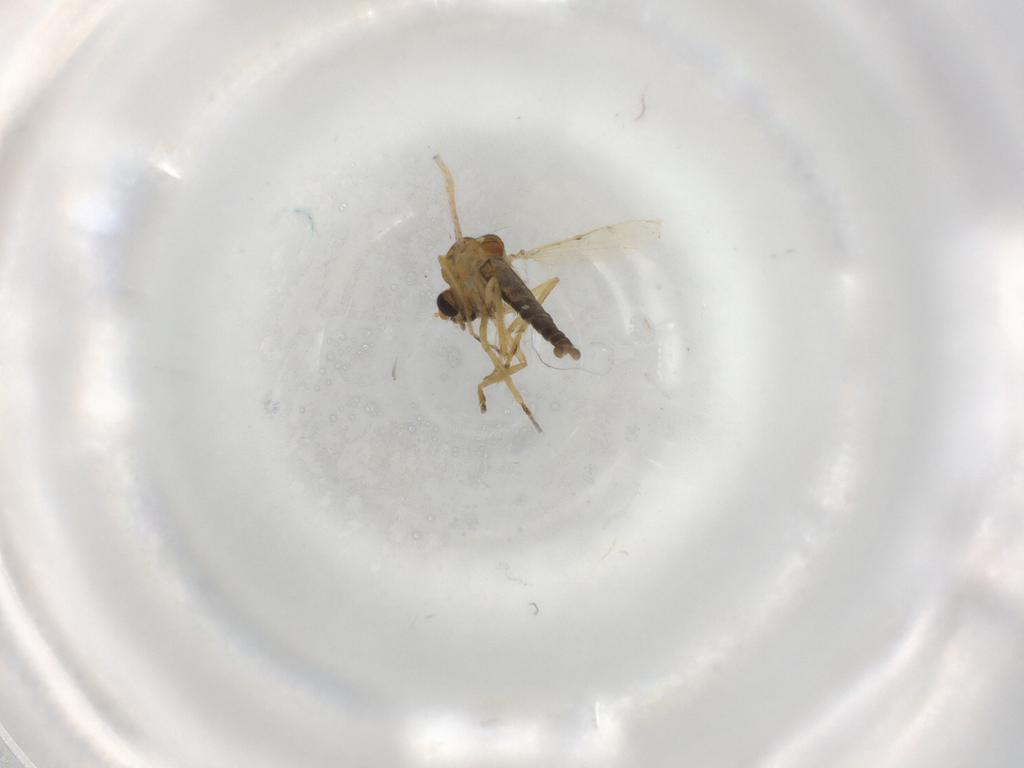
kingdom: Animalia
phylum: Arthropoda
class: Insecta
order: Diptera
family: Ceratopogonidae
